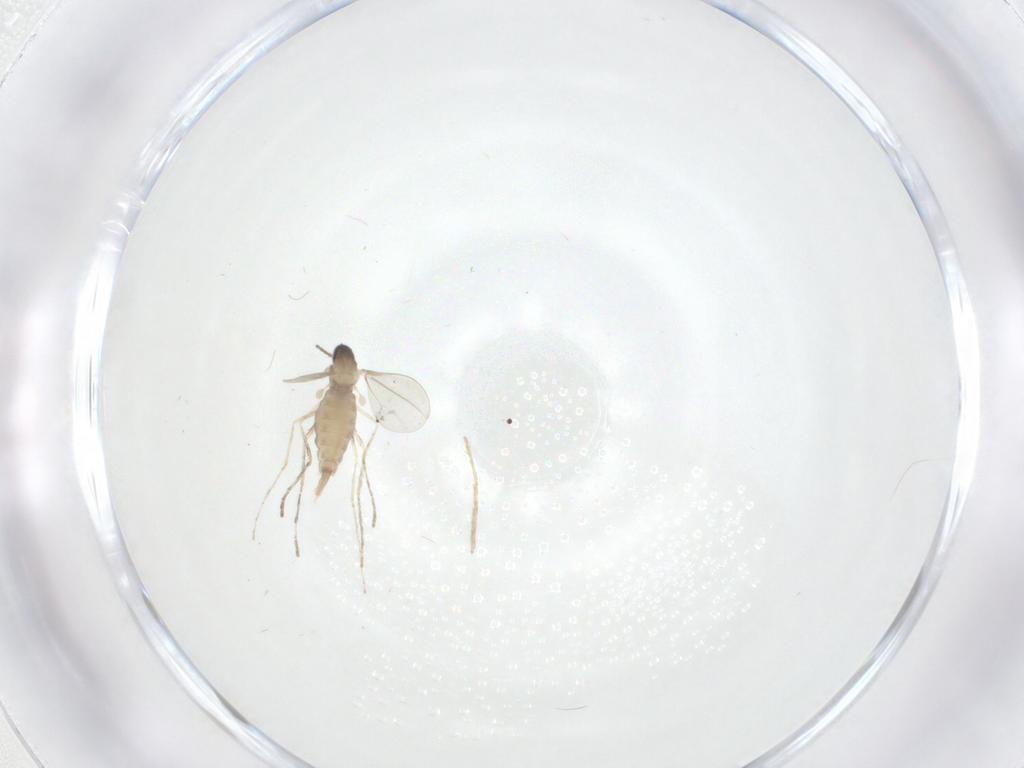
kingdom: Animalia
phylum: Arthropoda
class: Insecta
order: Diptera
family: Cecidomyiidae
